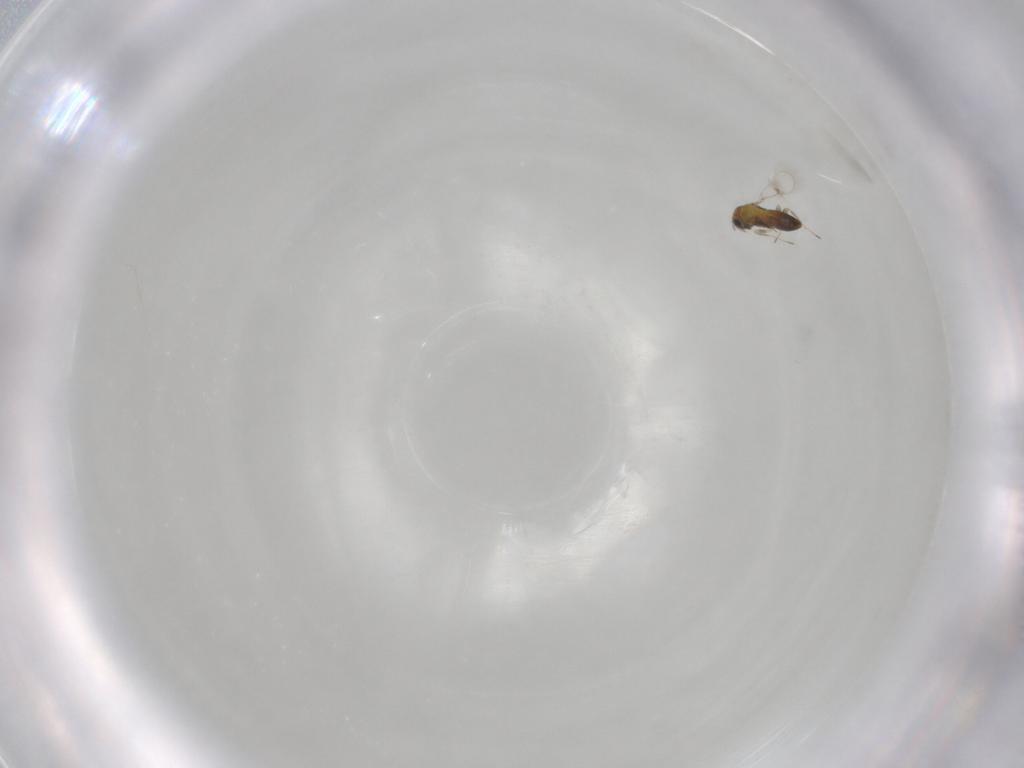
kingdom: Animalia
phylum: Arthropoda
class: Insecta
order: Hymenoptera
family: Trichogrammatidae
